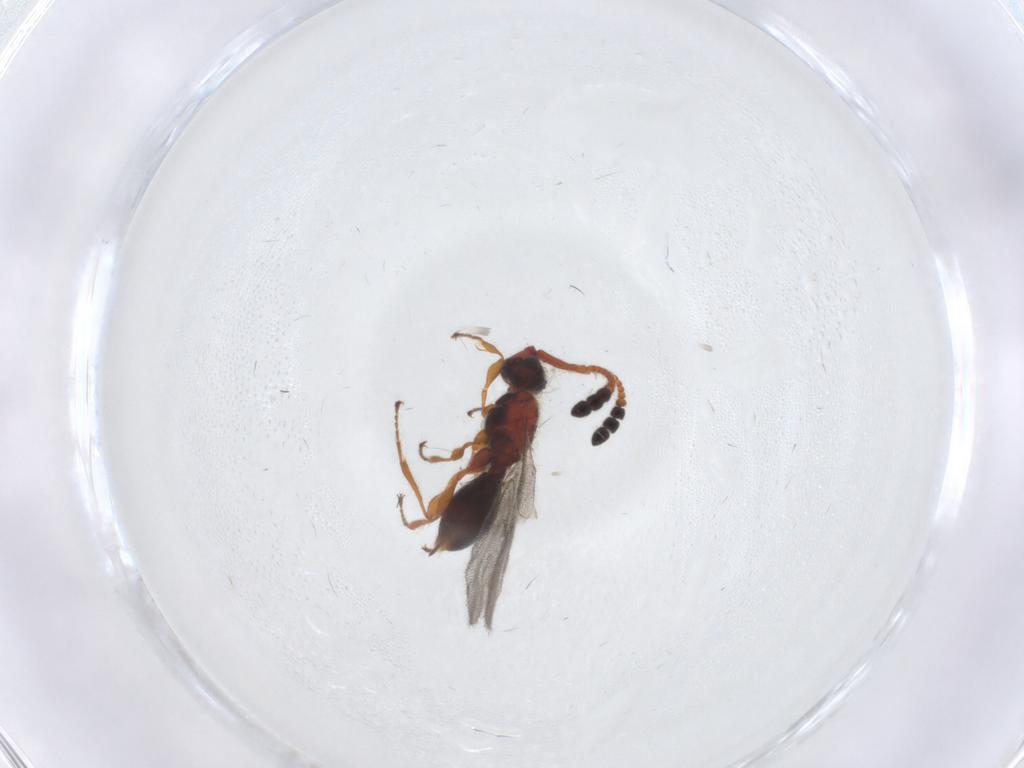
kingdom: Animalia
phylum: Arthropoda
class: Insecta
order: Hymenoptera
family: Diapriidae
